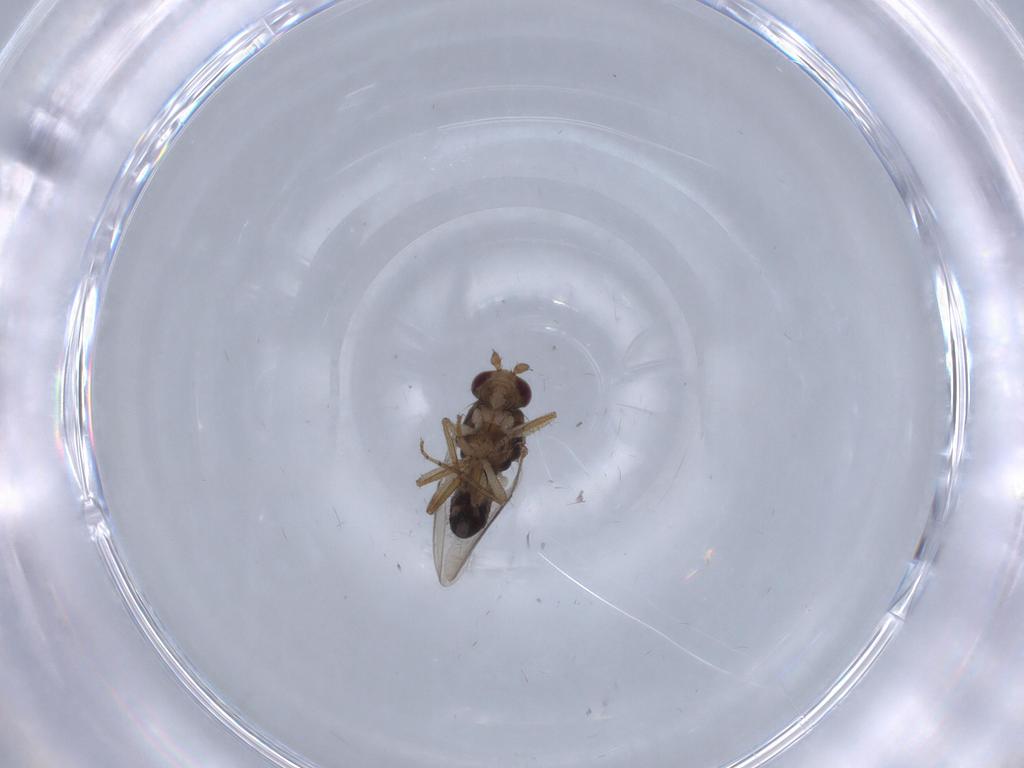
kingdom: Animalia
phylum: Arthropoda
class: Insecta
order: Diptera
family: Sphaeroceridae
